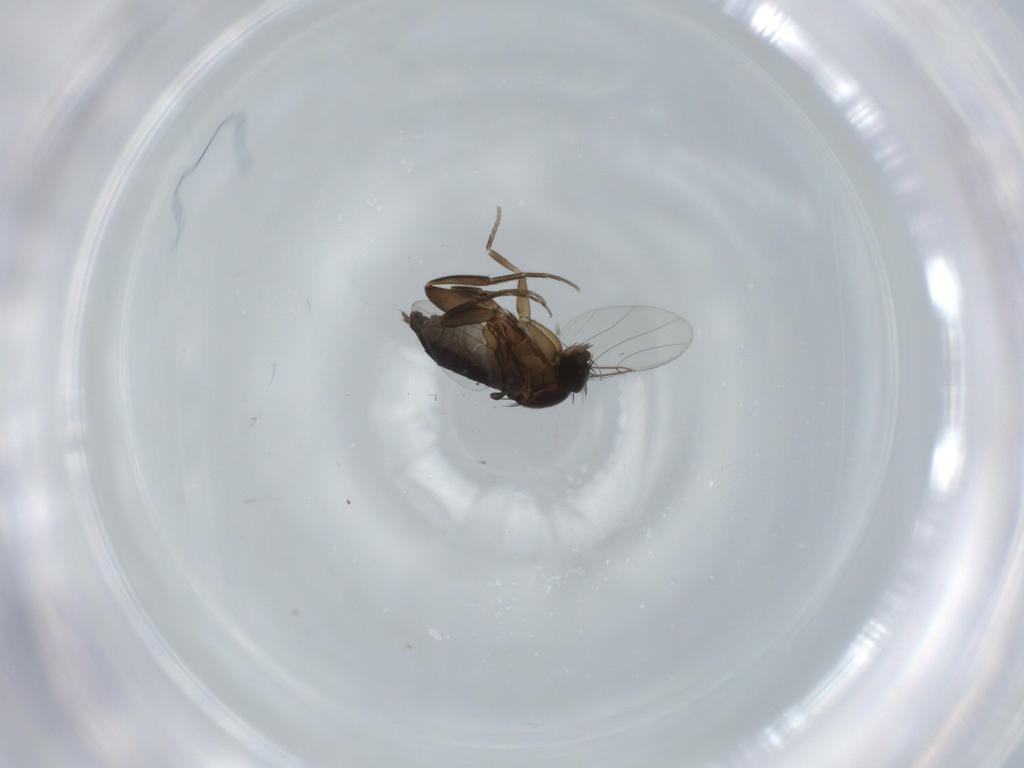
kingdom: Animalia
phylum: Arthropoda
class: Insecta
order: Diptera
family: Phoridae
